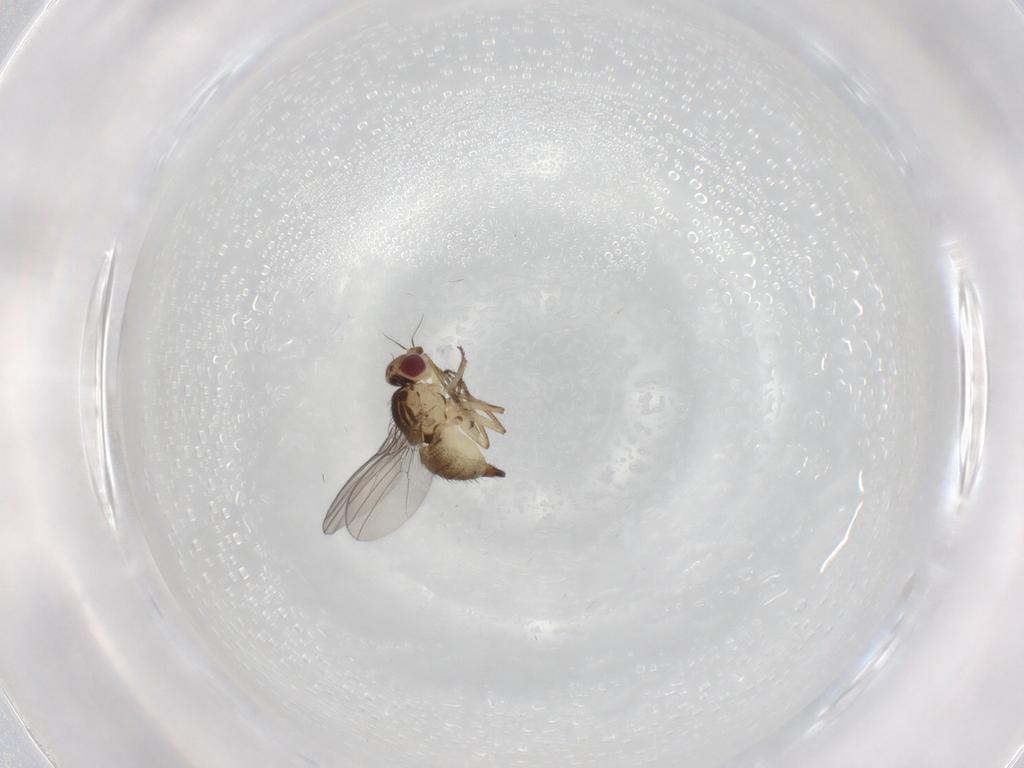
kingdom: Animalia
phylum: Arthropoda
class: Insecta
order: Diptera
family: Agromyzidae
